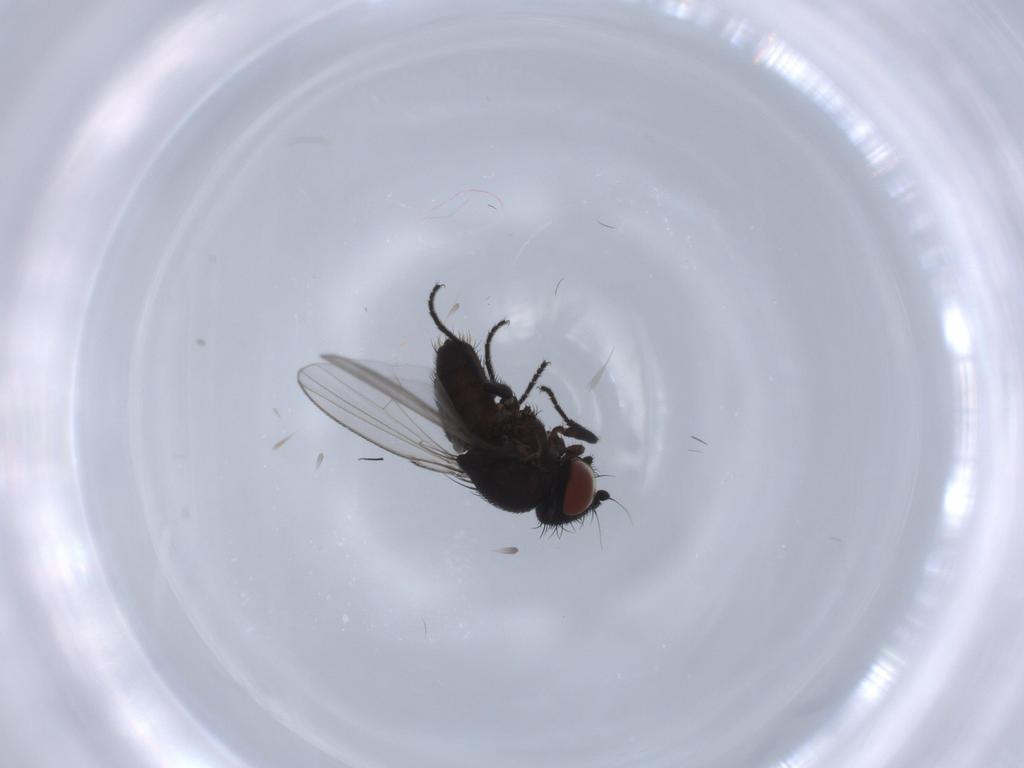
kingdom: Animalia
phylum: Arthropoda
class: Insecta
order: Diptera
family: Milichiidae
